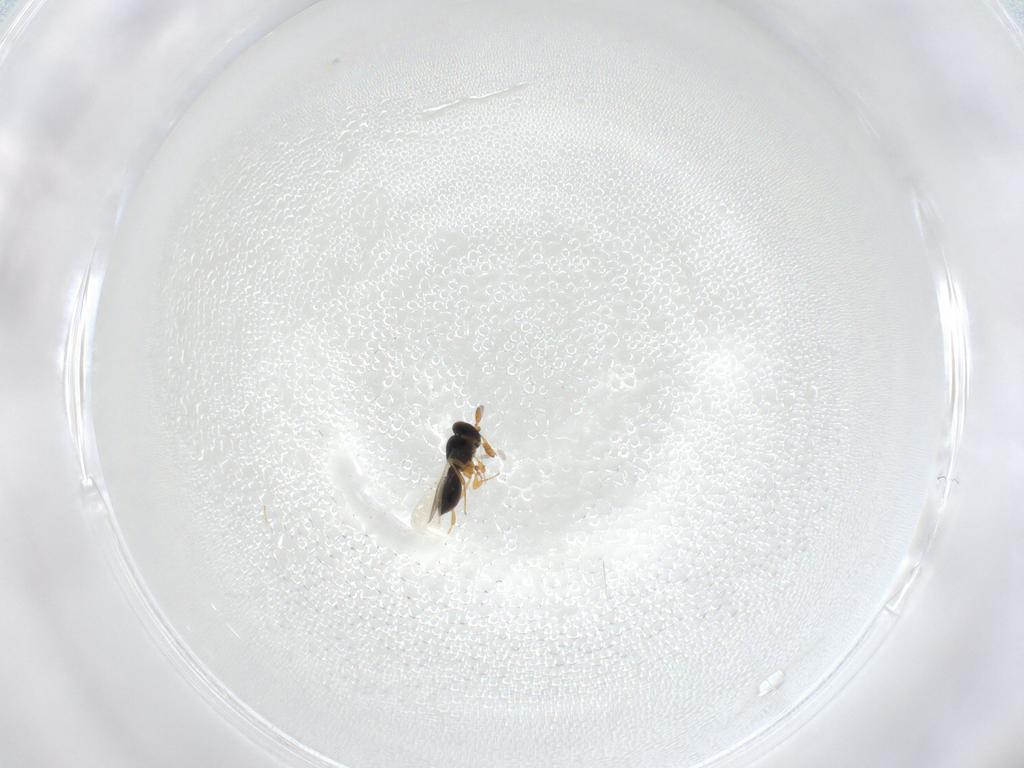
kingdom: Animalia
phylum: Arthropoda
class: Insecta
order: Hymenoptera
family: Platygastridae
